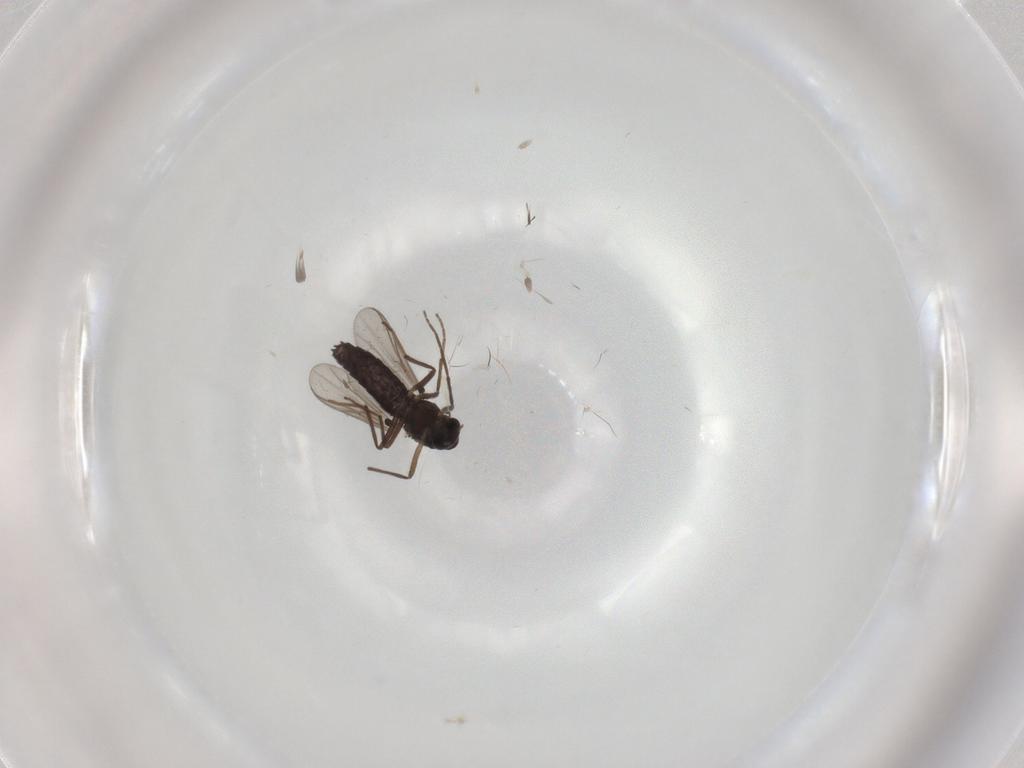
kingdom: Animalia
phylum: Arthropoda
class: Insecta
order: Diptera
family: Chironomidae
